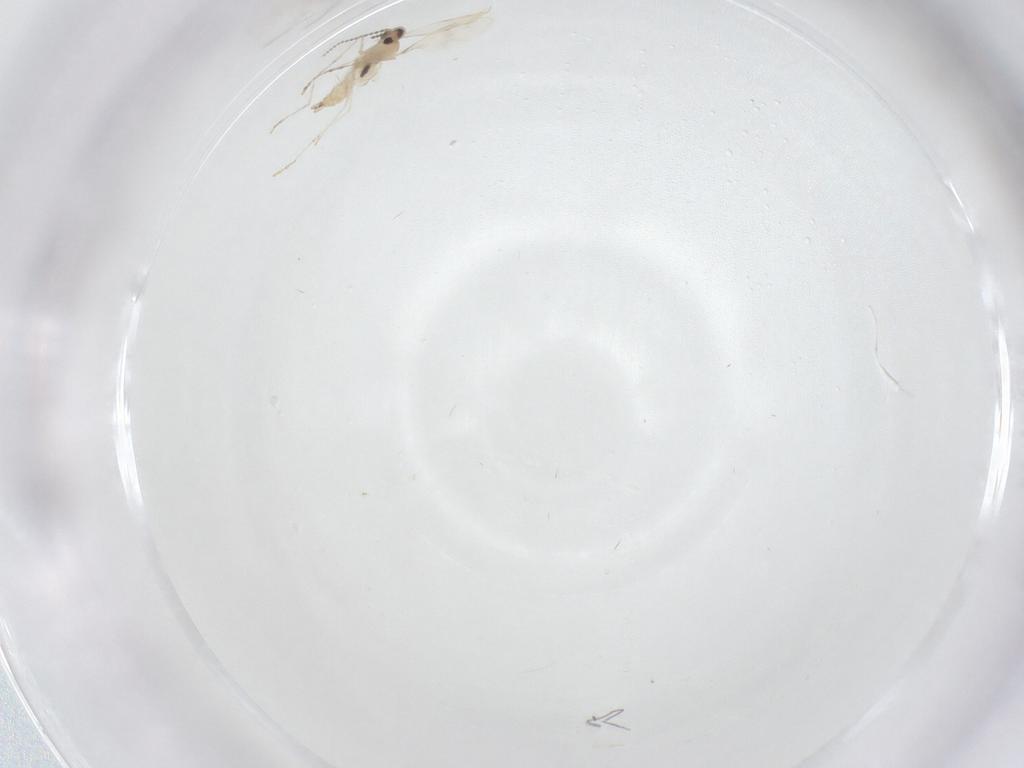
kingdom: Animalia
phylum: Arthropoda
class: Insecta
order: Diptera
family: Phoridae
